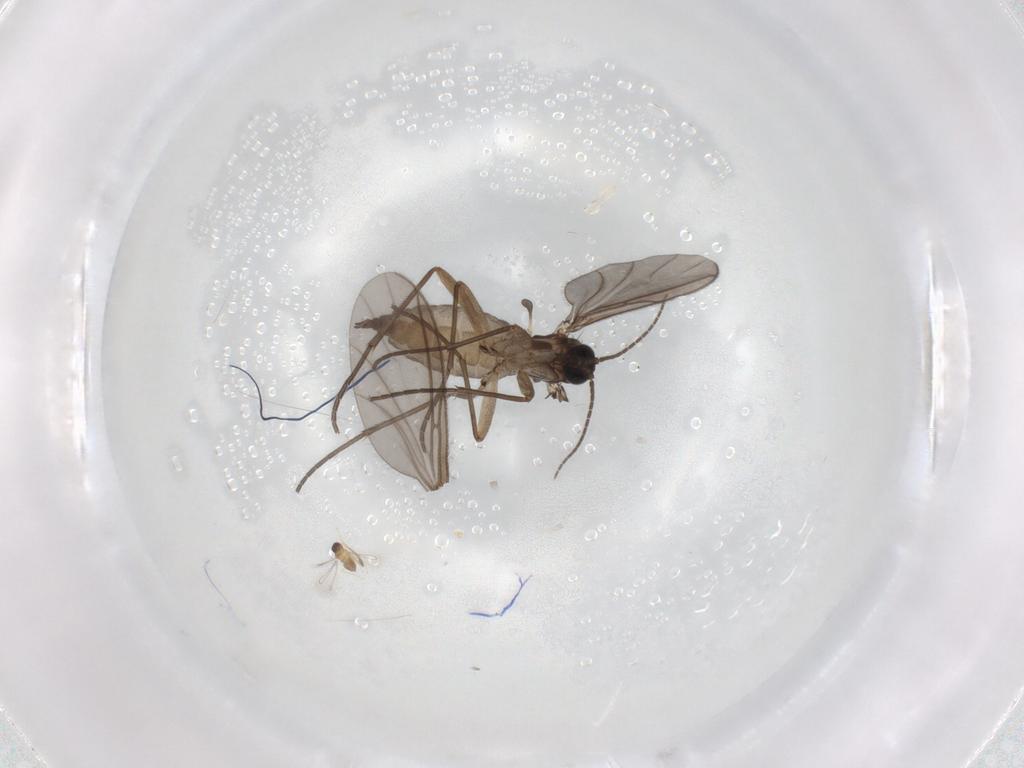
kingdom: Animalia
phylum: Arthropoda
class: Insecta
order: Diptera
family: Sciaridae
